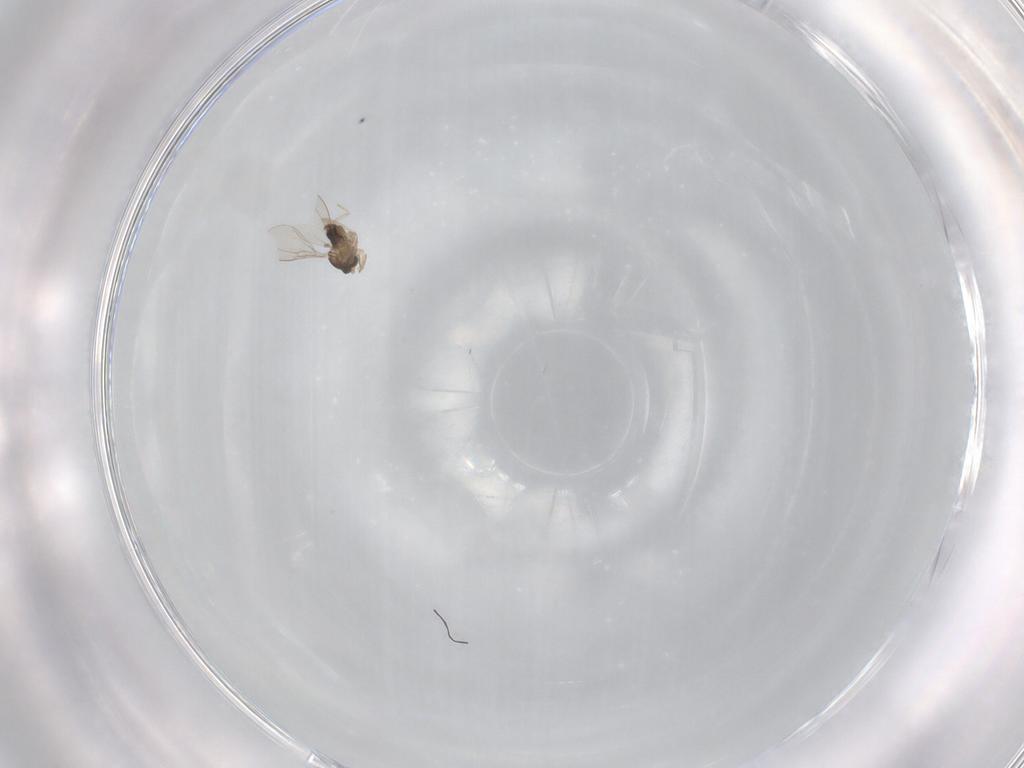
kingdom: Animalia
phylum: Arthropoda
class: Insecta
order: Diptera
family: Cecidomyiidae
